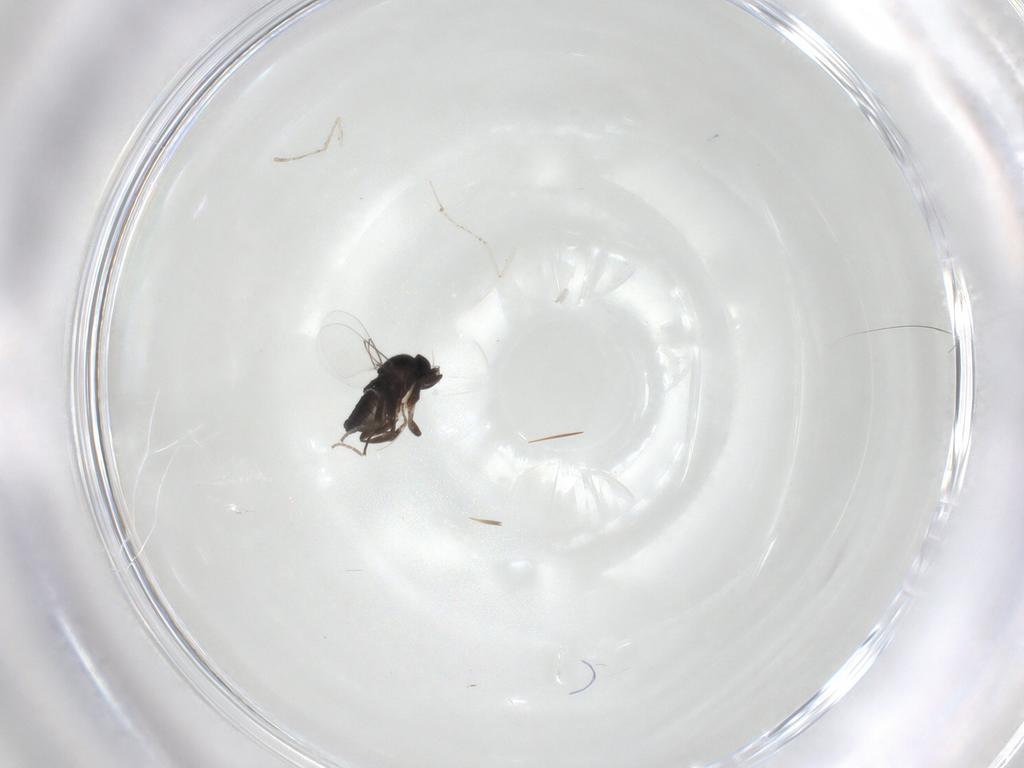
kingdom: Animalia
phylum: Arthropoda
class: Insecta
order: Diptera
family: Phoridae
